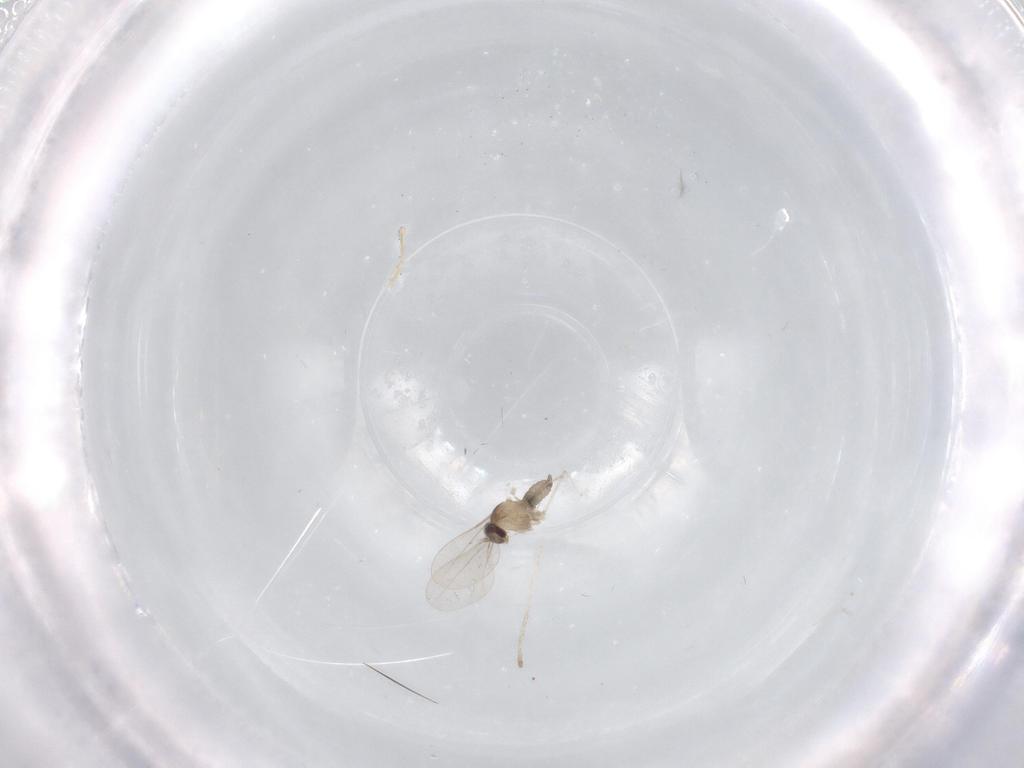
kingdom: Animalia
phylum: Arthropoda
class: Insecta
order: Diptera
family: Cecidomyiidae
